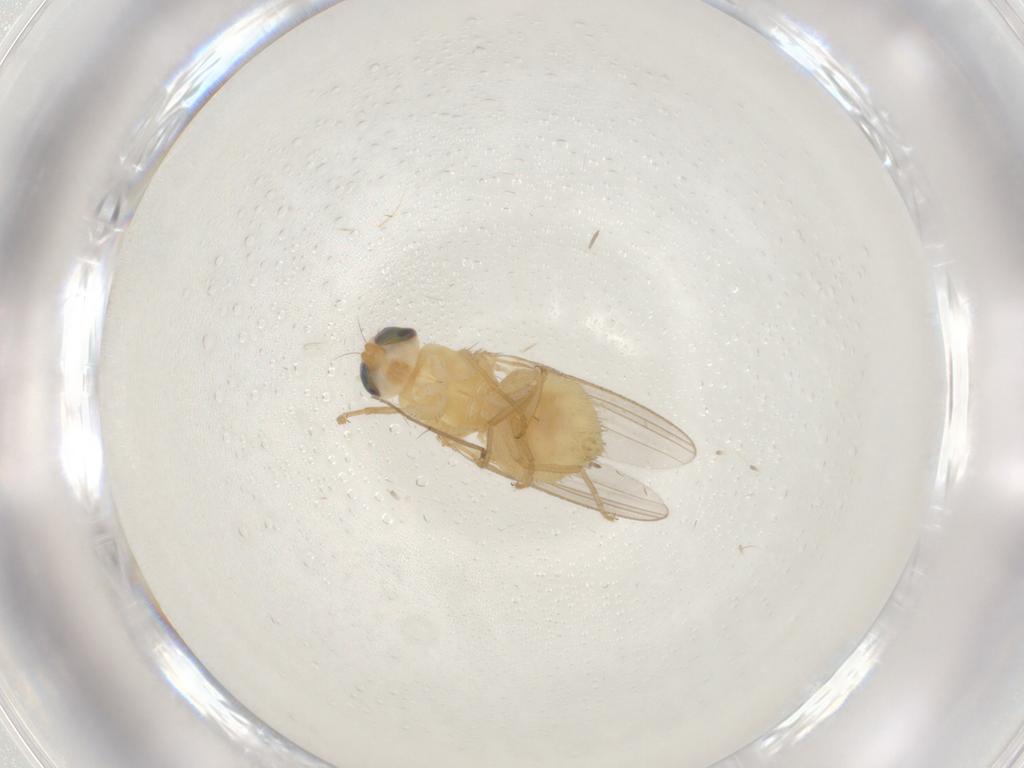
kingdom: Animalia
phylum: Arthropoda
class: Insecta
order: Diptera
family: Chyromyidae
